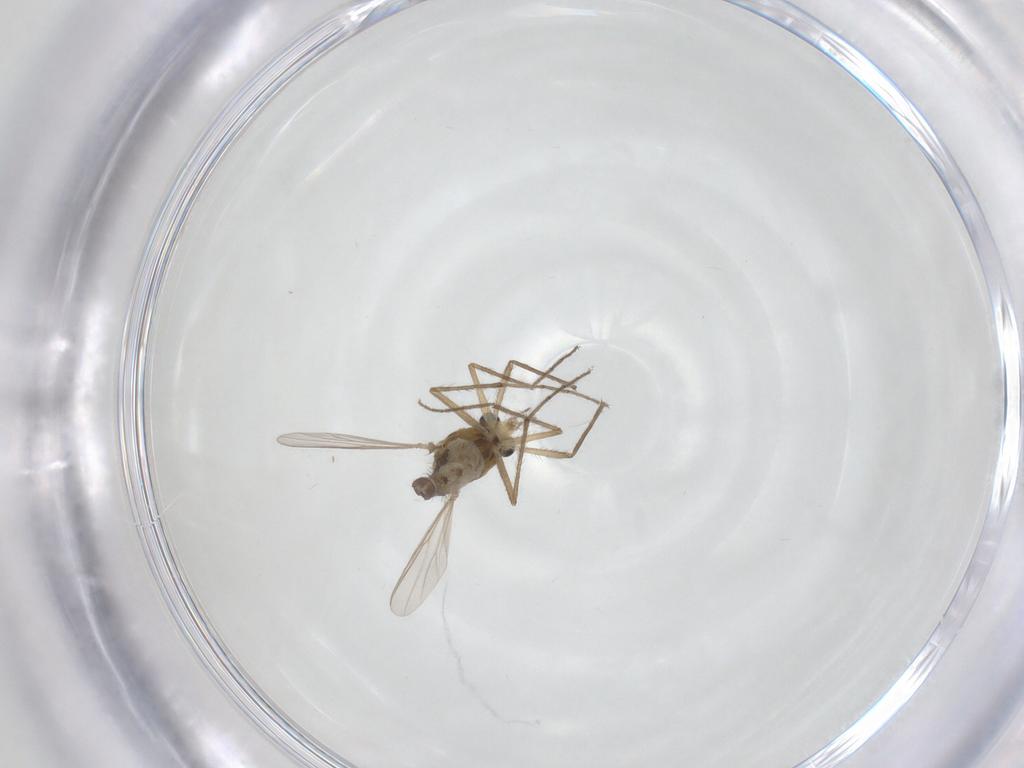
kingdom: Animalia
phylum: Arthropoda
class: Insecta
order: Diptera
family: Chironomidae
